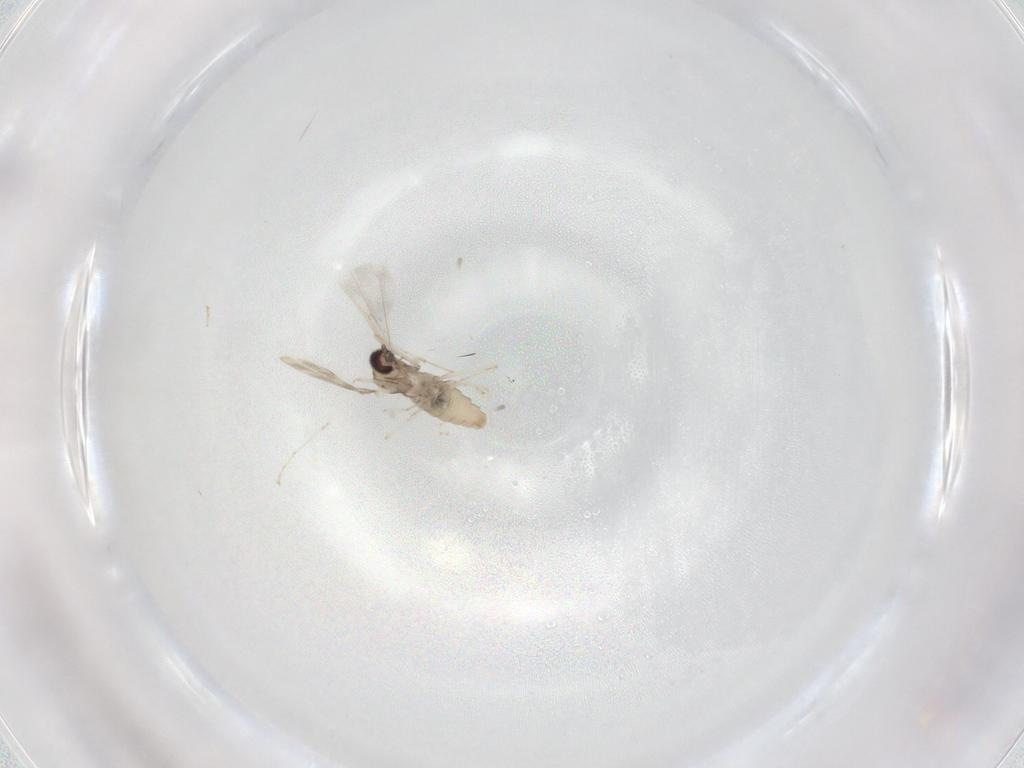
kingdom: Animalia
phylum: Arthropoda
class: Insecta
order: Diptera
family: Cecidomyiidae
